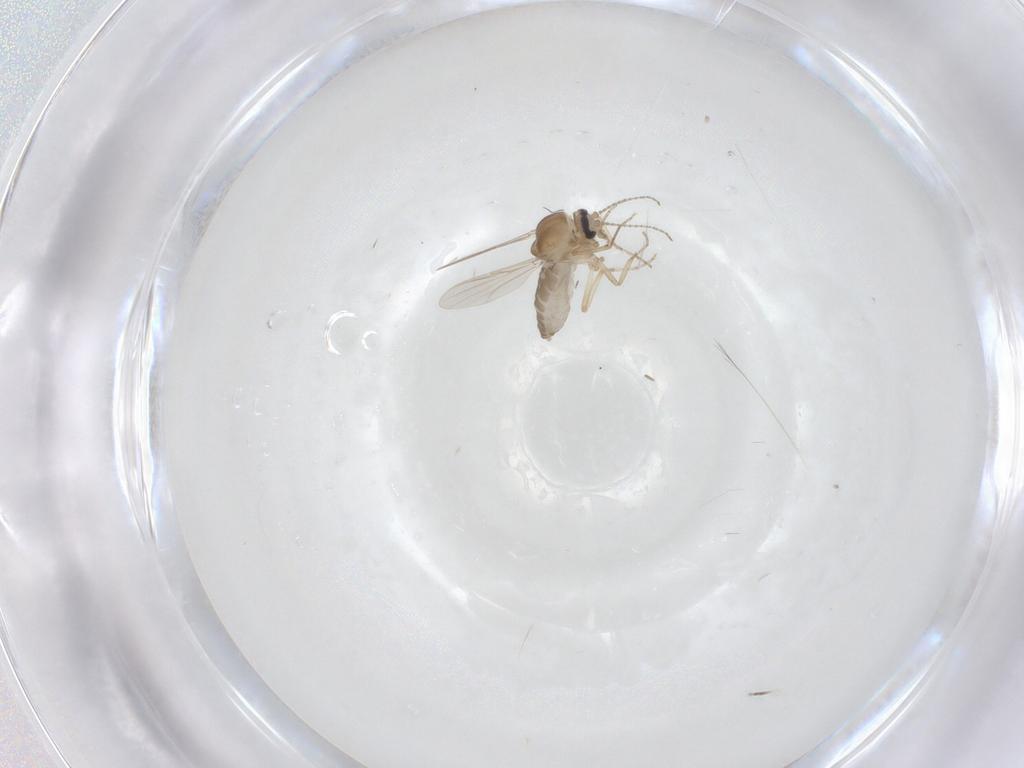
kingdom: Animalia
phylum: Arthropoda
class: Insecta
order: Diptera
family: Ceratopogonidae
